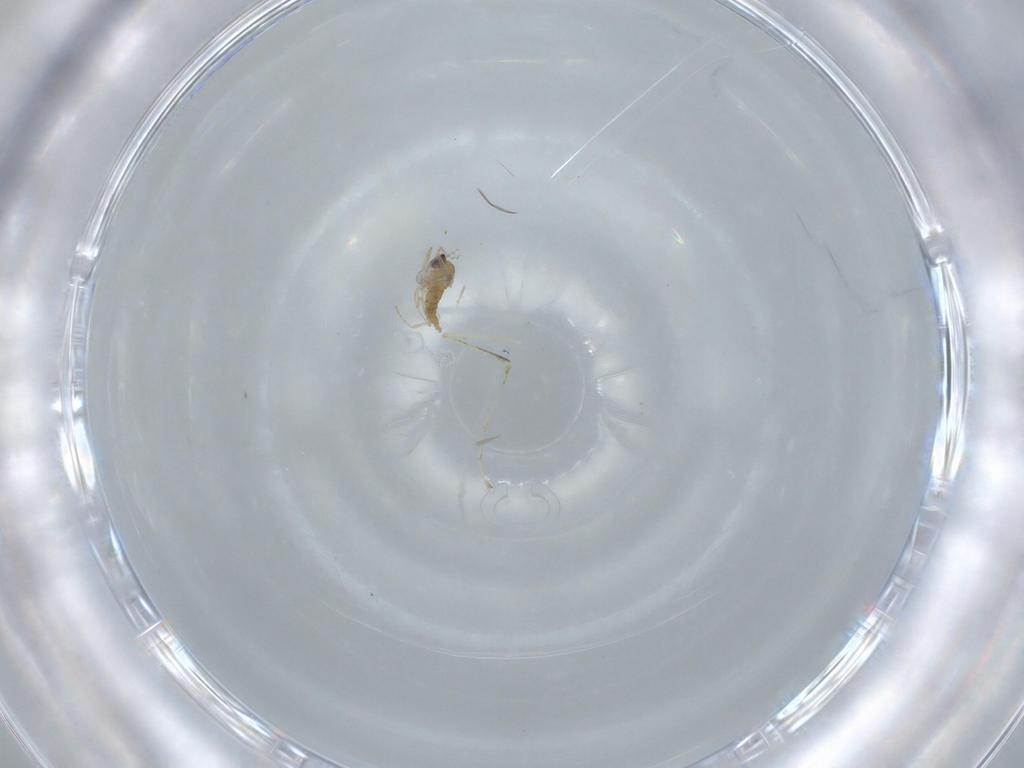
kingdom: Animalia
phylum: Arthropoda
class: Insecta
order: Diptera
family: Cecidomyiidae
